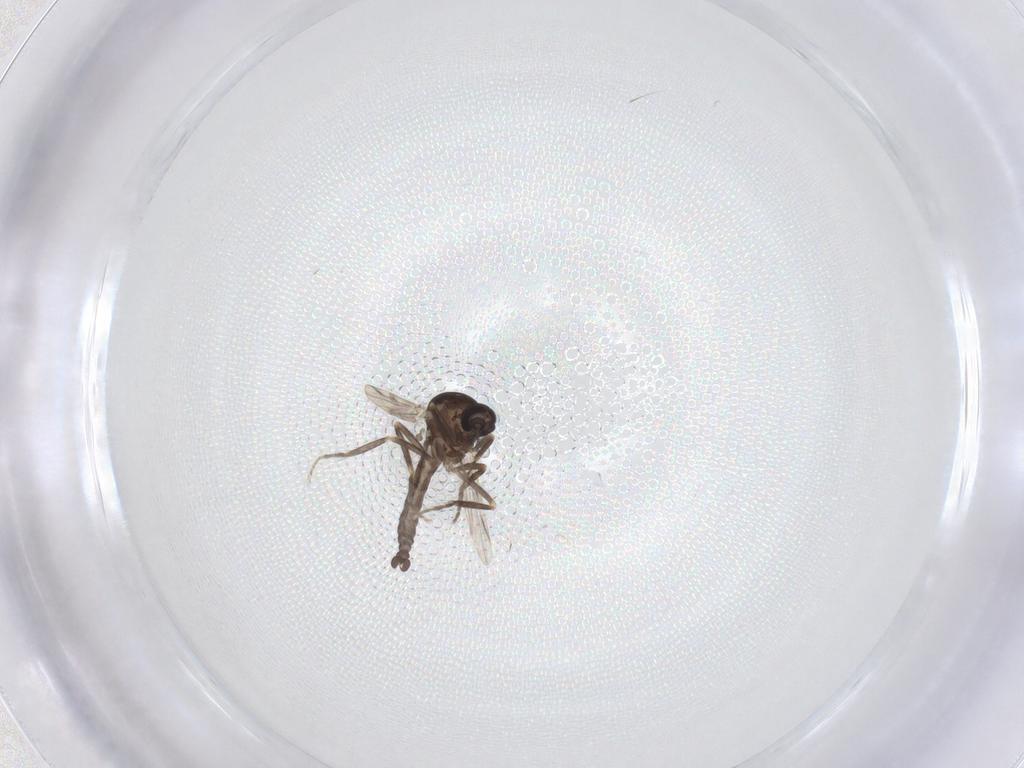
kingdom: Animalia
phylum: Arthropoda
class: Insecta
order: Diptera
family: Ceratopogonidae
